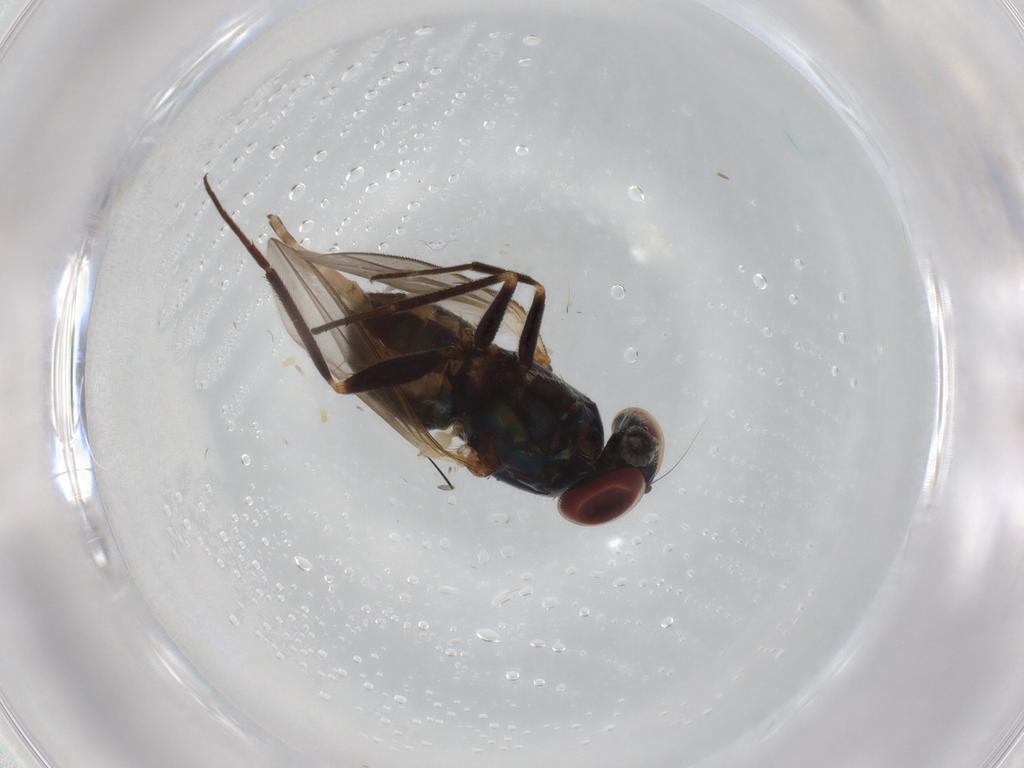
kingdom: Animalia
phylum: Arthropoda
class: Insecta
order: Diptera
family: Dolichopodidae
